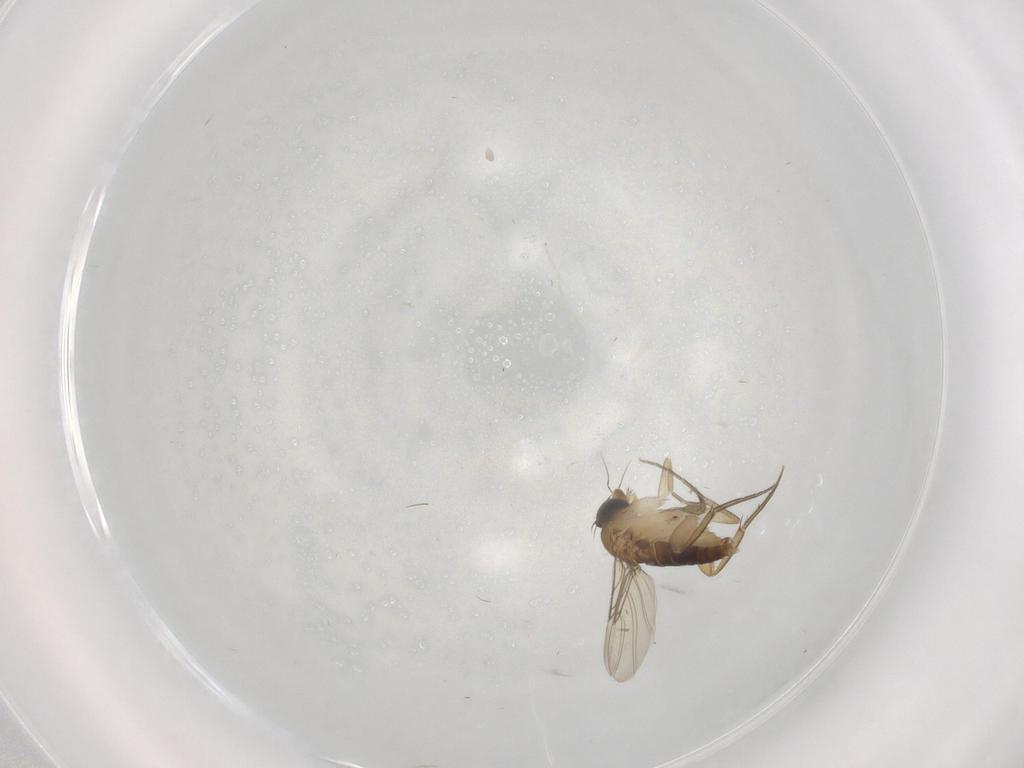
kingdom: Animalia
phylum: Arthropoda
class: Insecta
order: Diptera
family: Phoridae
